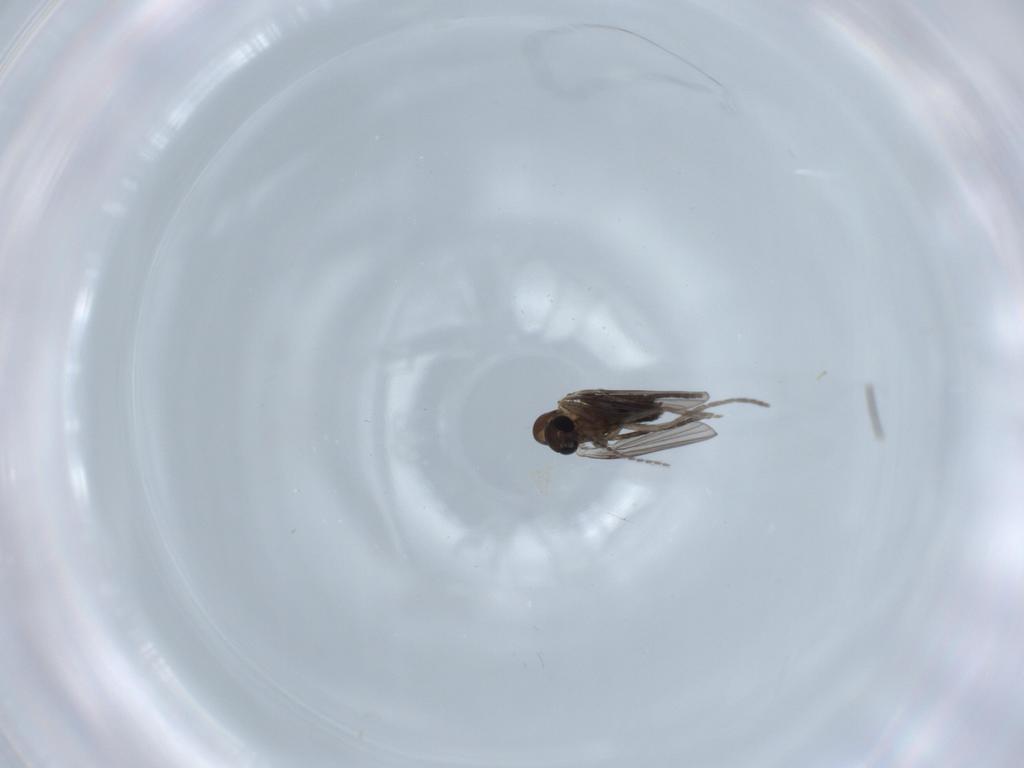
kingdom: Animalia
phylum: Arthropoda
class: Insecta
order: Diptera
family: Cecidomyiidae
